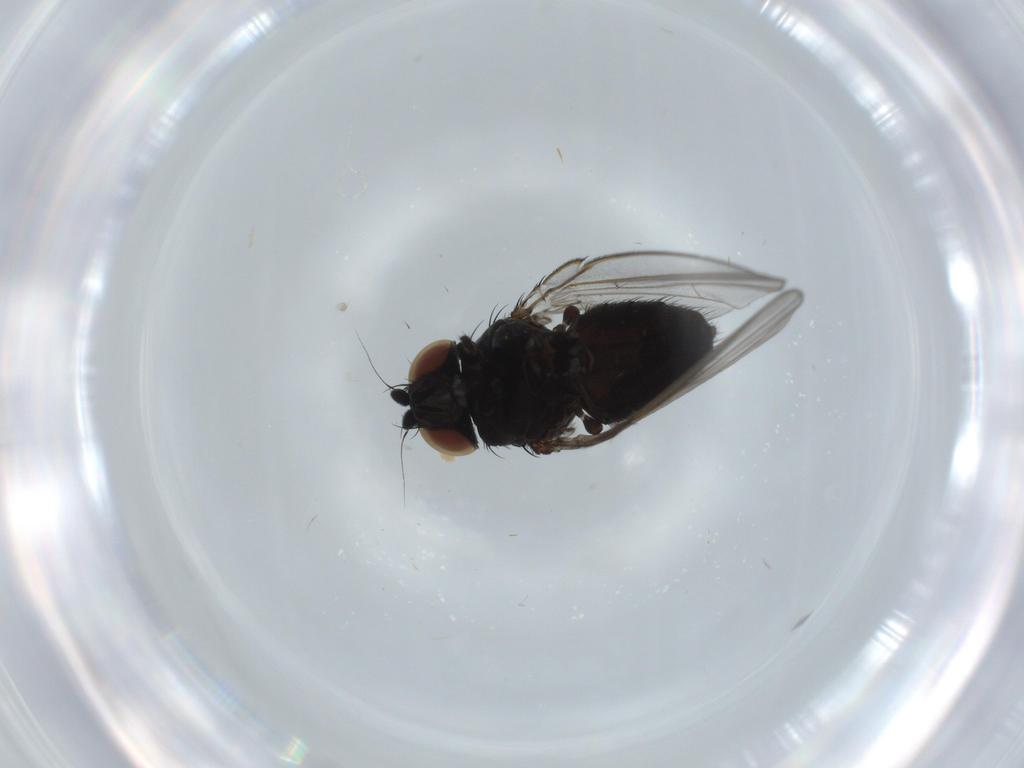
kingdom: Animalia
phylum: Arthropoda
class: Insecta
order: Diptera
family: Milichiidae
